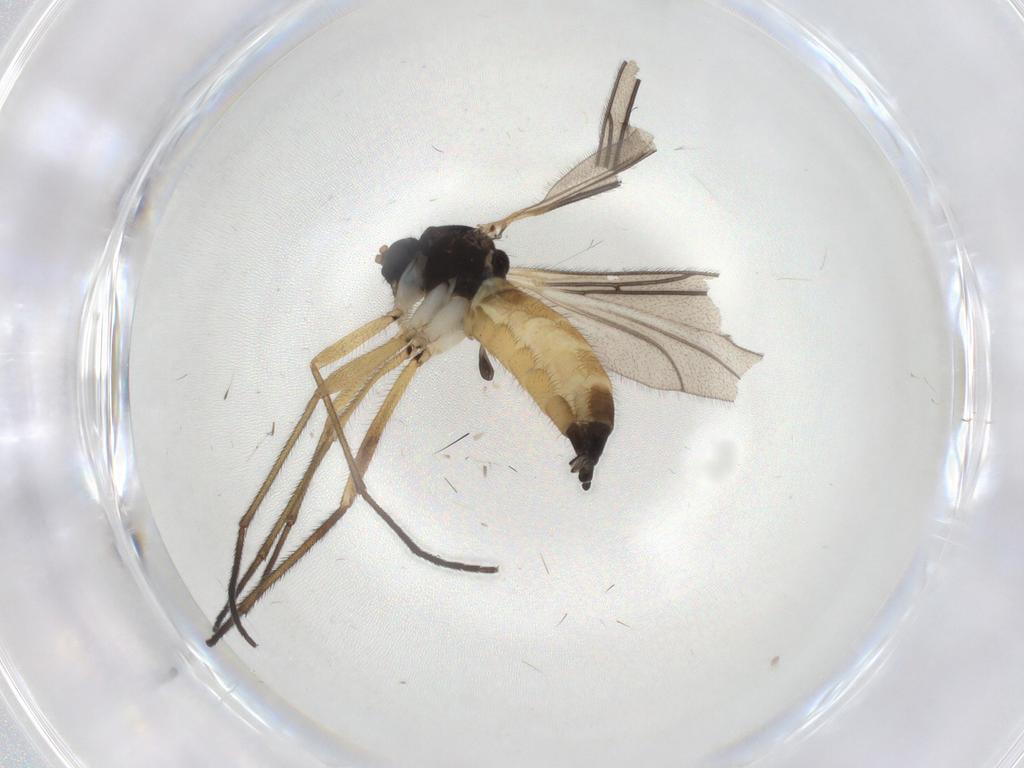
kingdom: Animalia
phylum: Arthropoda
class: Insecta
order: Diptera
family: Sciaridae
